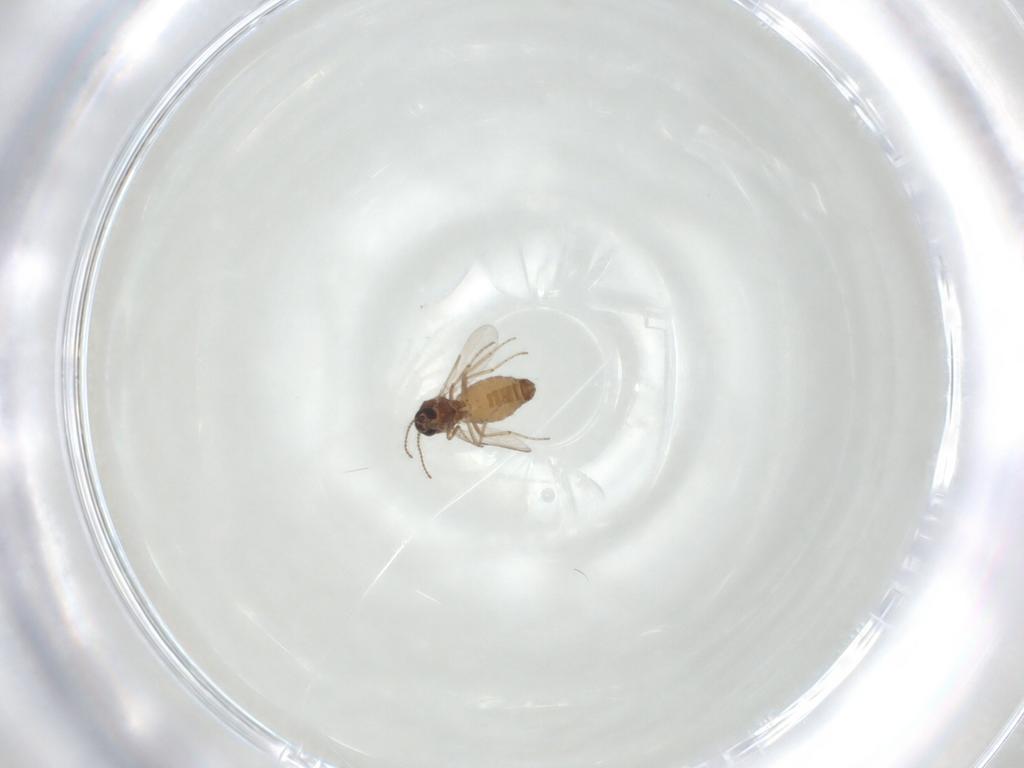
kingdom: Animalia
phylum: Arthropoda
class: Insecta
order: Diptera
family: Ceratopogonidae
